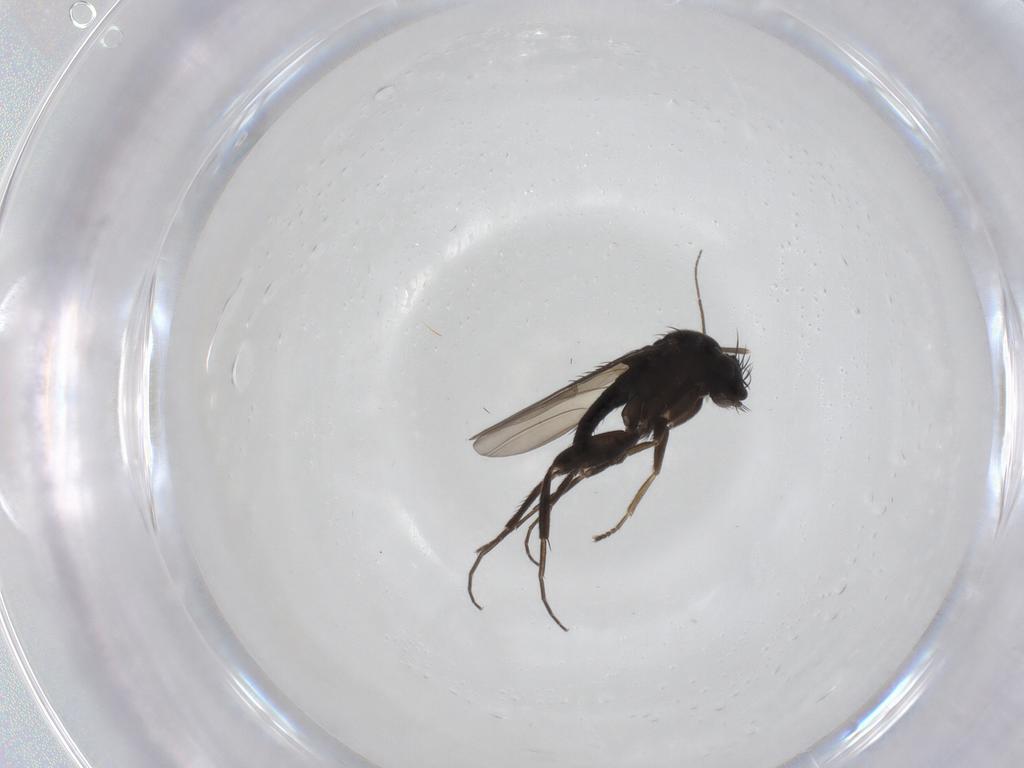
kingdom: Animalia
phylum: Arthropoda
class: Insecta
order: Diptera
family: Phoridae
